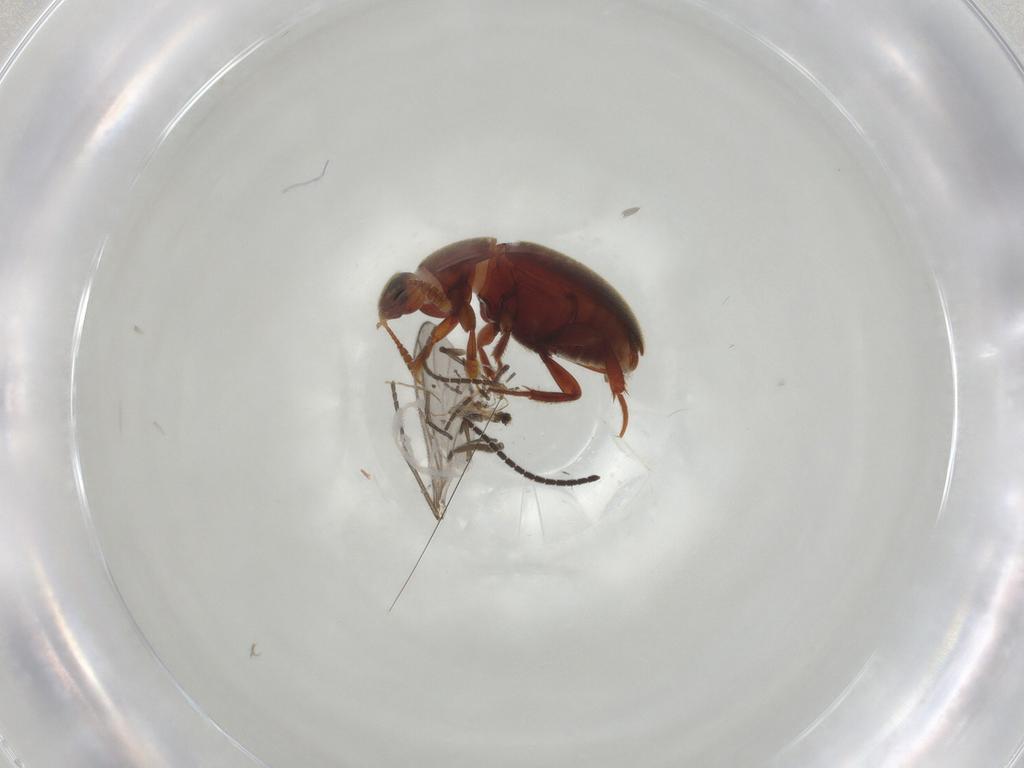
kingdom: Animalia
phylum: Arthropoda
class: Insecta
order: Coleoptera
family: Leiodidae
